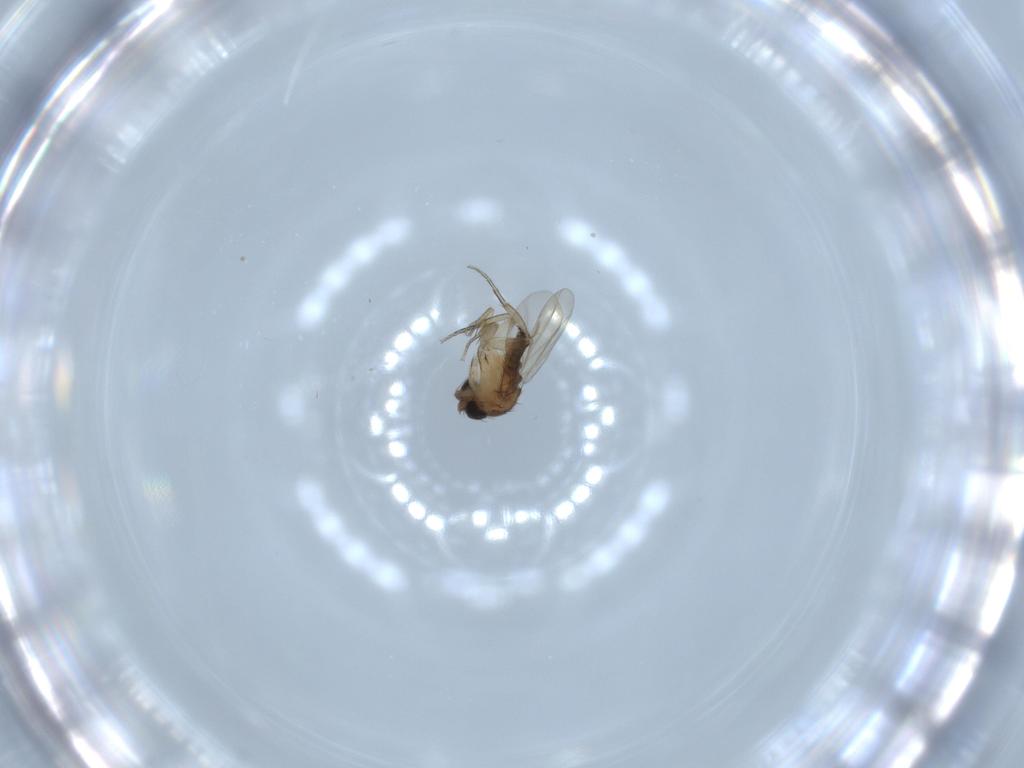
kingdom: Animalia
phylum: Arthropoda
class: Insecta
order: Diptera
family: Phoridae
